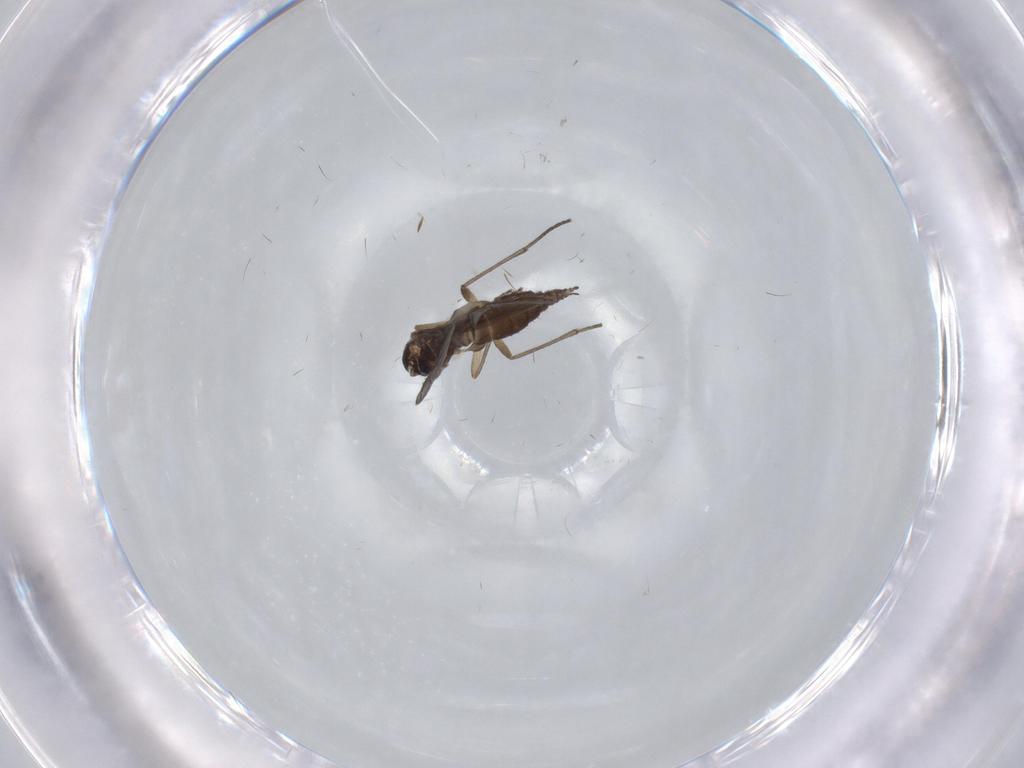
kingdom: Animalia
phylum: Arthropoda
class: Insecta
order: Diptera
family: Sciaridae
